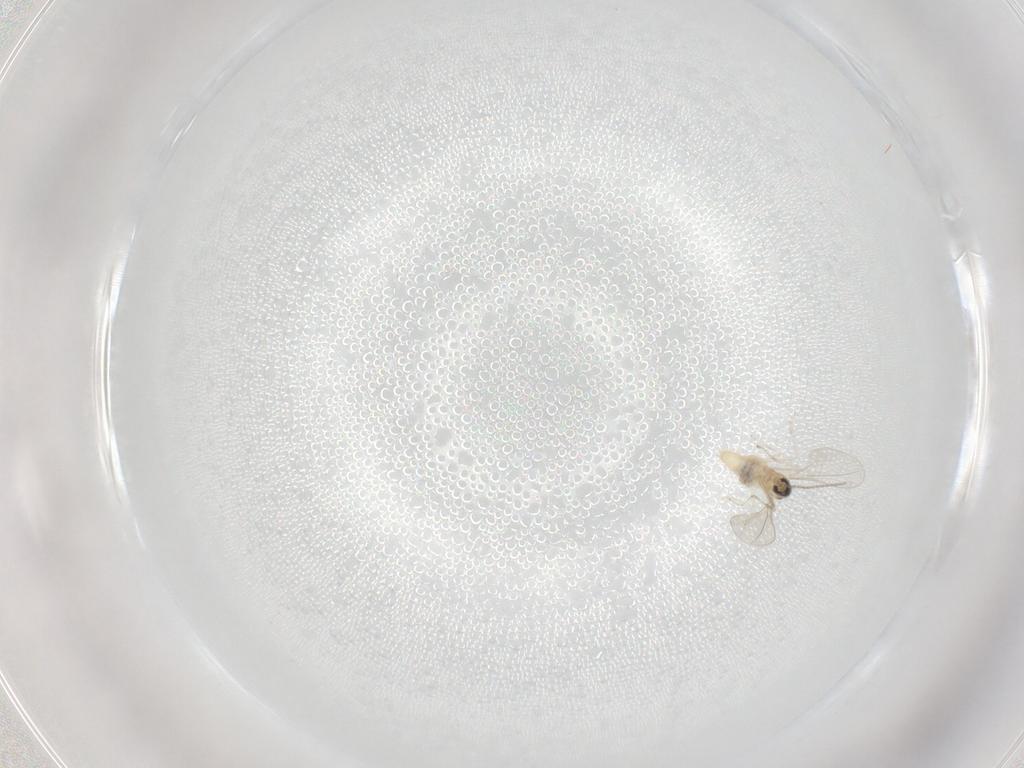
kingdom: Animalia
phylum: Arthropoda
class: Insecta
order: Diptera
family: Cecidomyiidae
